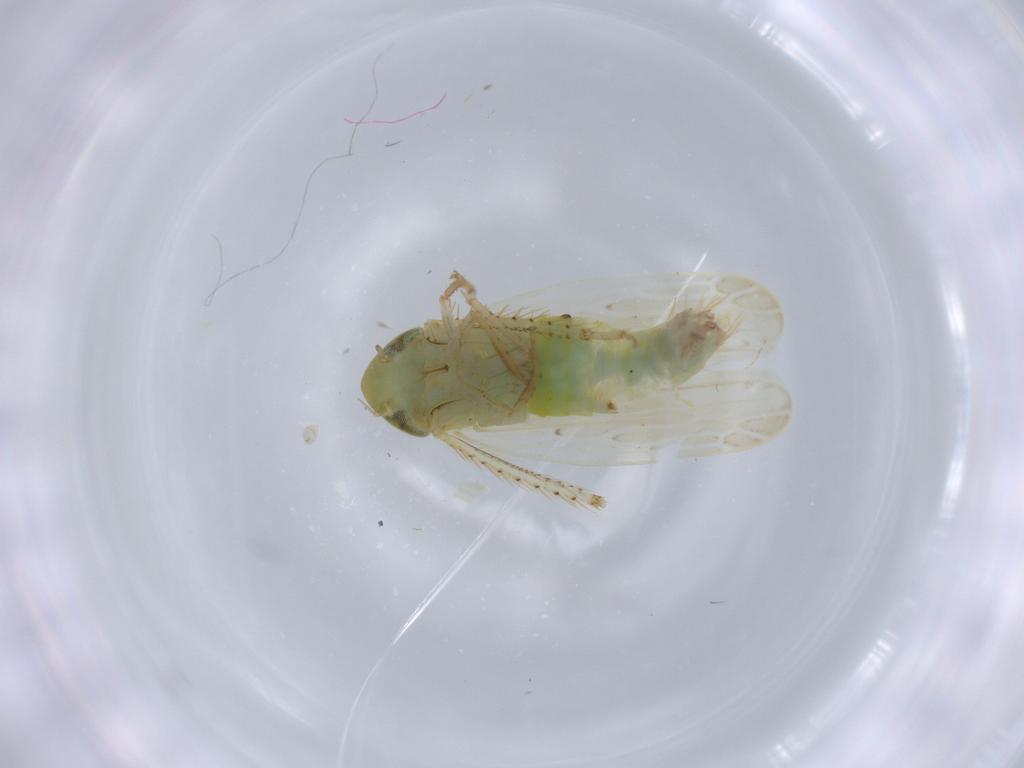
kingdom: Animalia
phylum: Arthropoda
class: Insecta
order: Hemiptera
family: Cicadellidae
